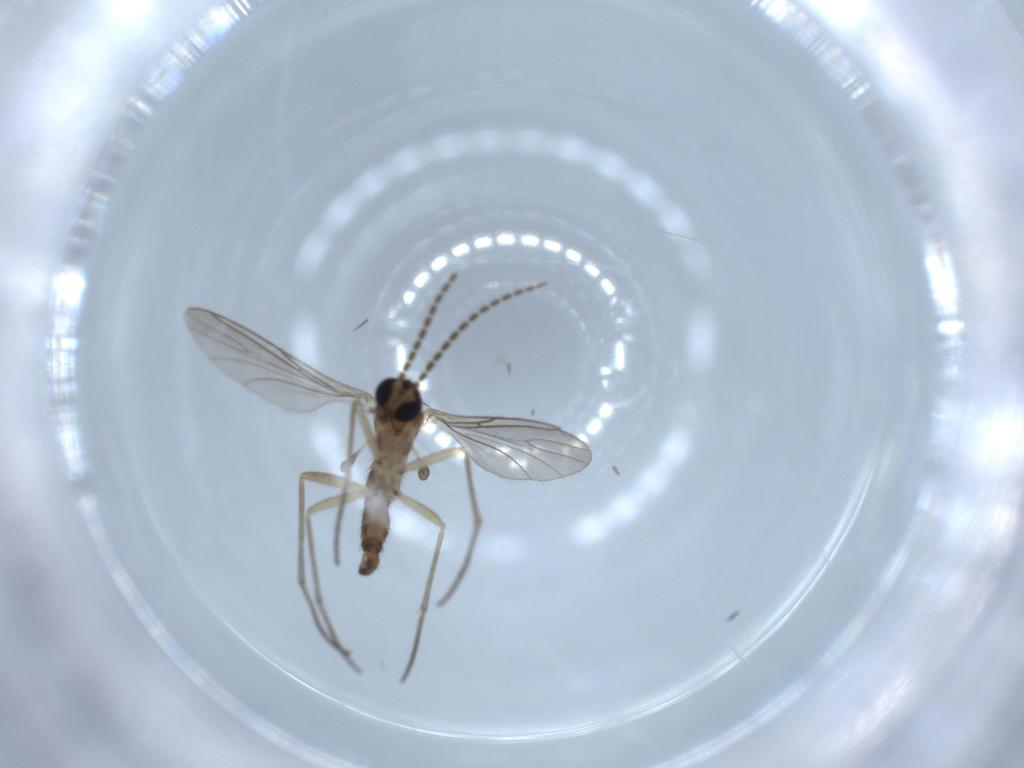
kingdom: Animalia
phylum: Arthropoda
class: Insecta
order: Diptera
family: Sciaridae
